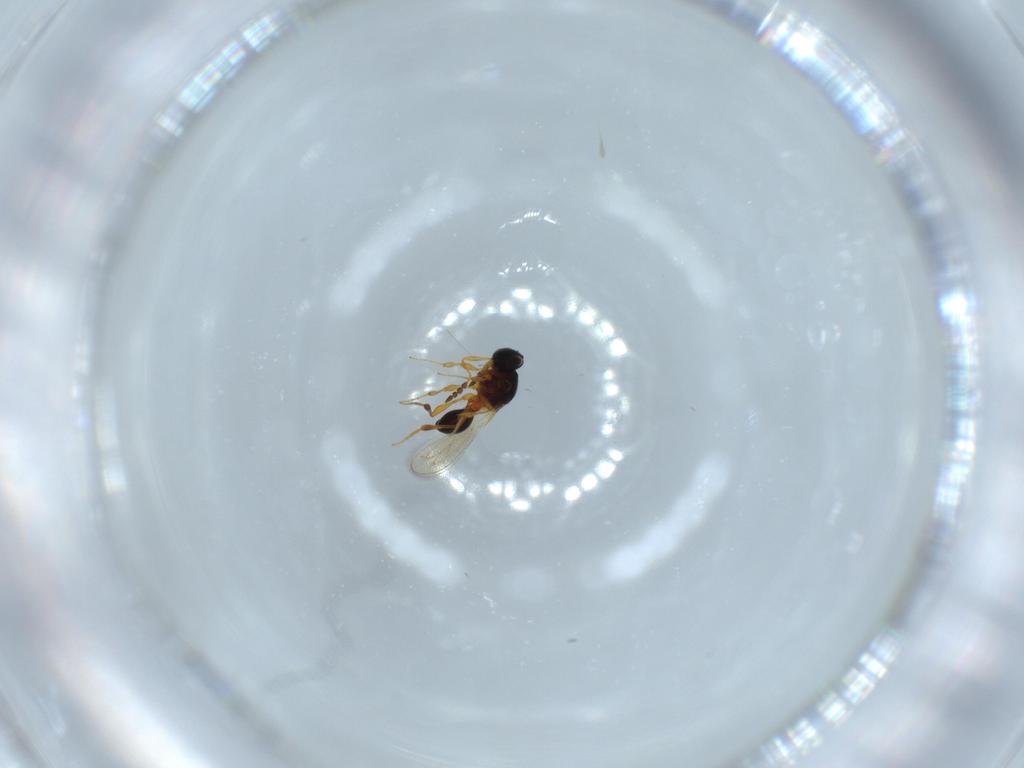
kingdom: Animalia
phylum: Arthropoda
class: Insecta
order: Hymenoptera
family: Platygastridae
